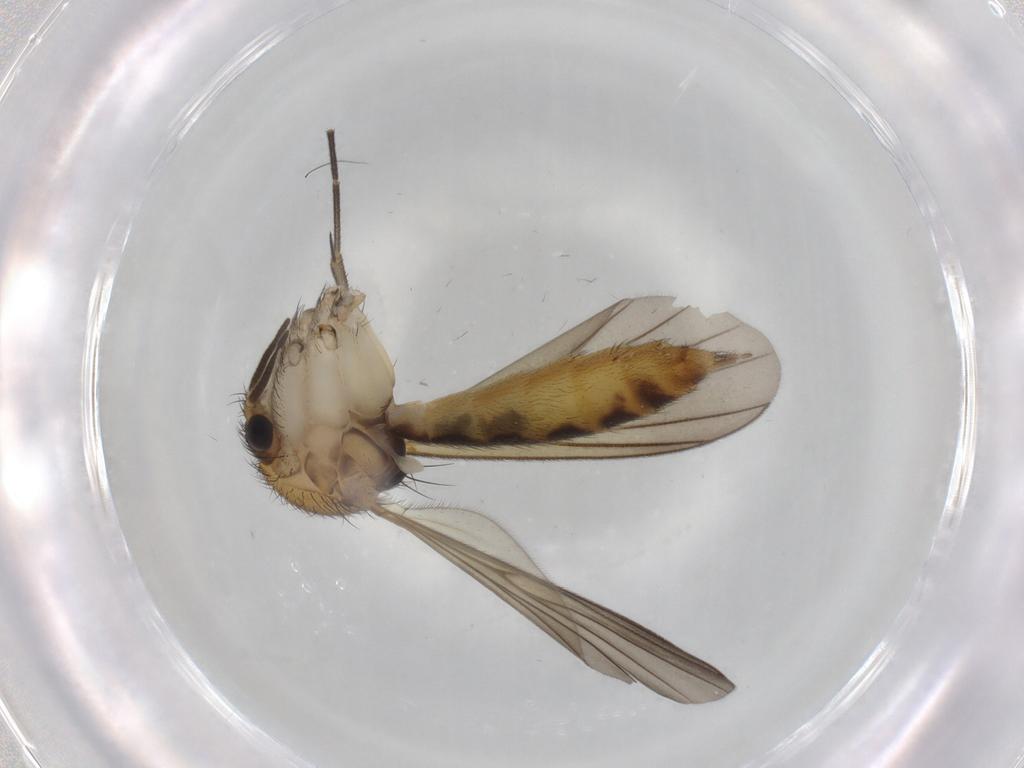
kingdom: Animalia
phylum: Arthropoda
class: Insecta
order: Diptera
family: Mycetophilidae
